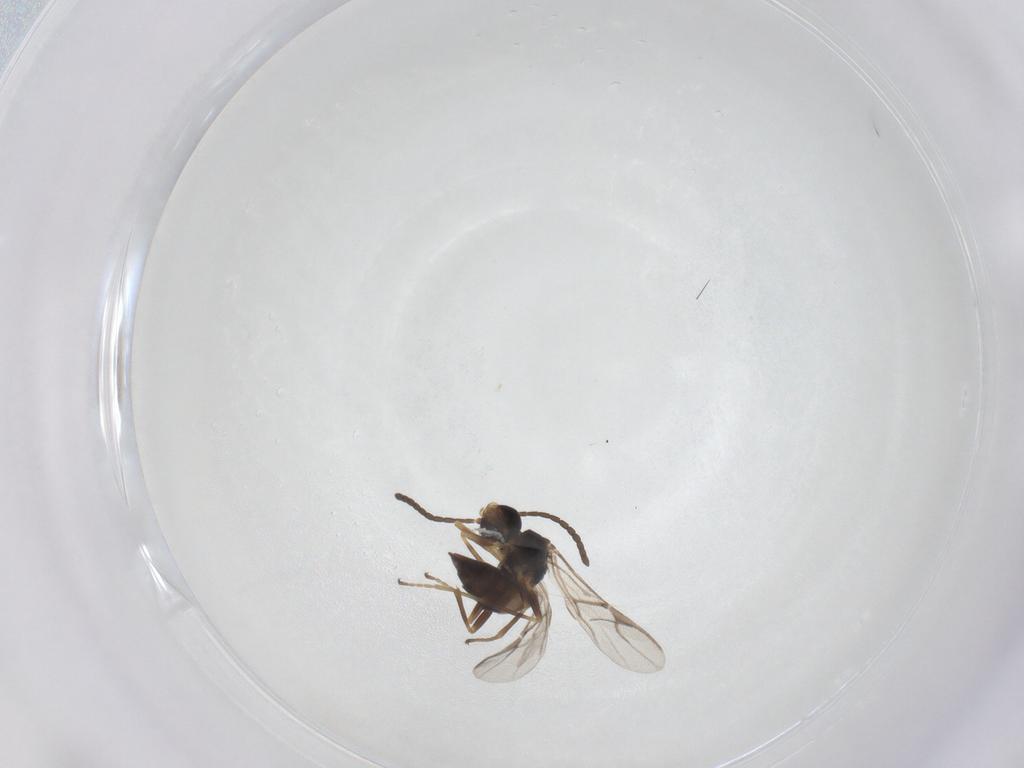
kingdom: Animalia
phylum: Arthropoda
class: Insecta
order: Hymenoptera
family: Braconidae
